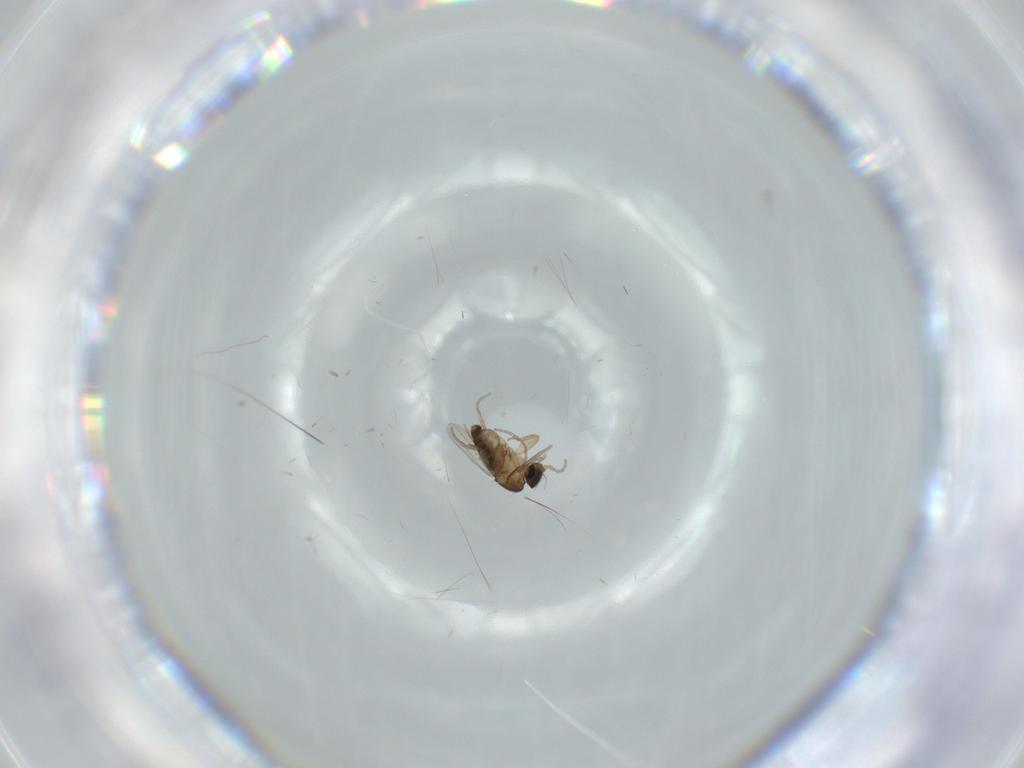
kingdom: Animalia
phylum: Arthropoda
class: Insecta
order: Diptera
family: Phoridae
